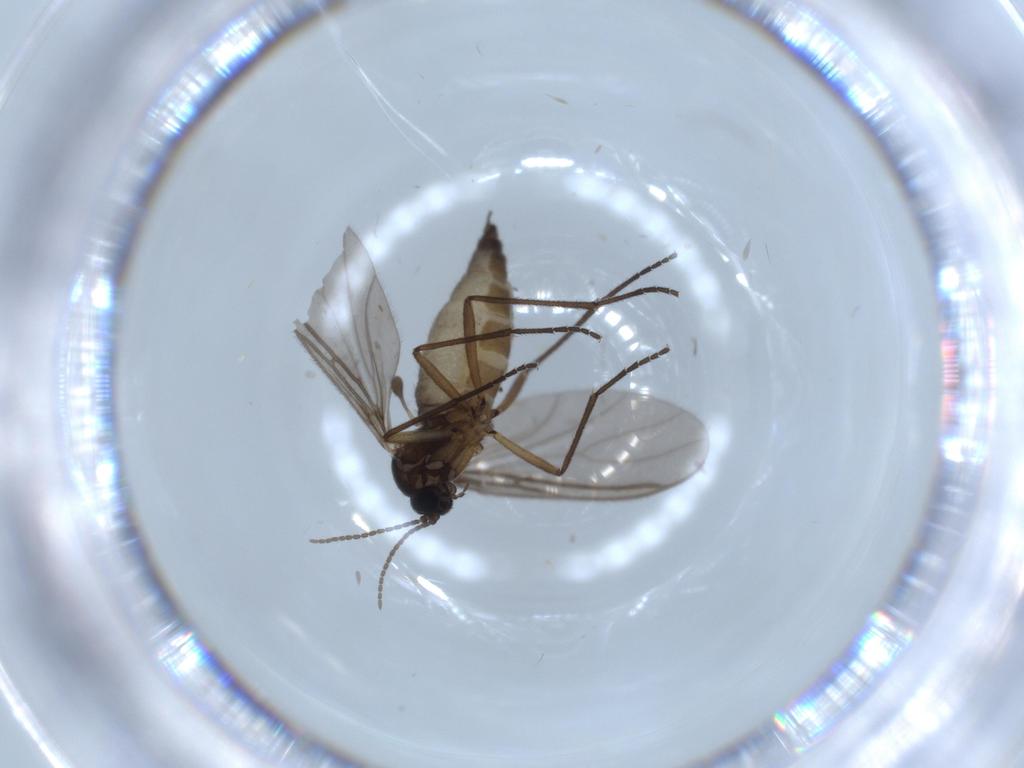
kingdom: Animalia
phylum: Arthropoda
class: Insecta
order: Diptera
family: Sciaridae
